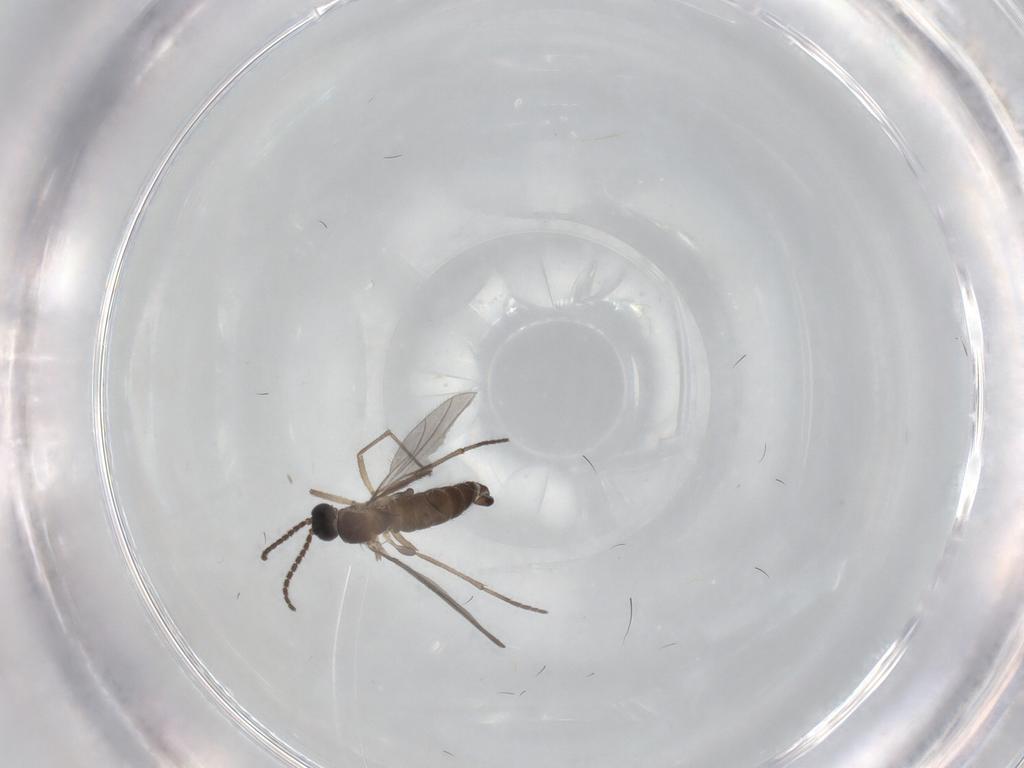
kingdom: Animalia
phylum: Arthropoda
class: Insecta
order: Diptera
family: Sciaridae
